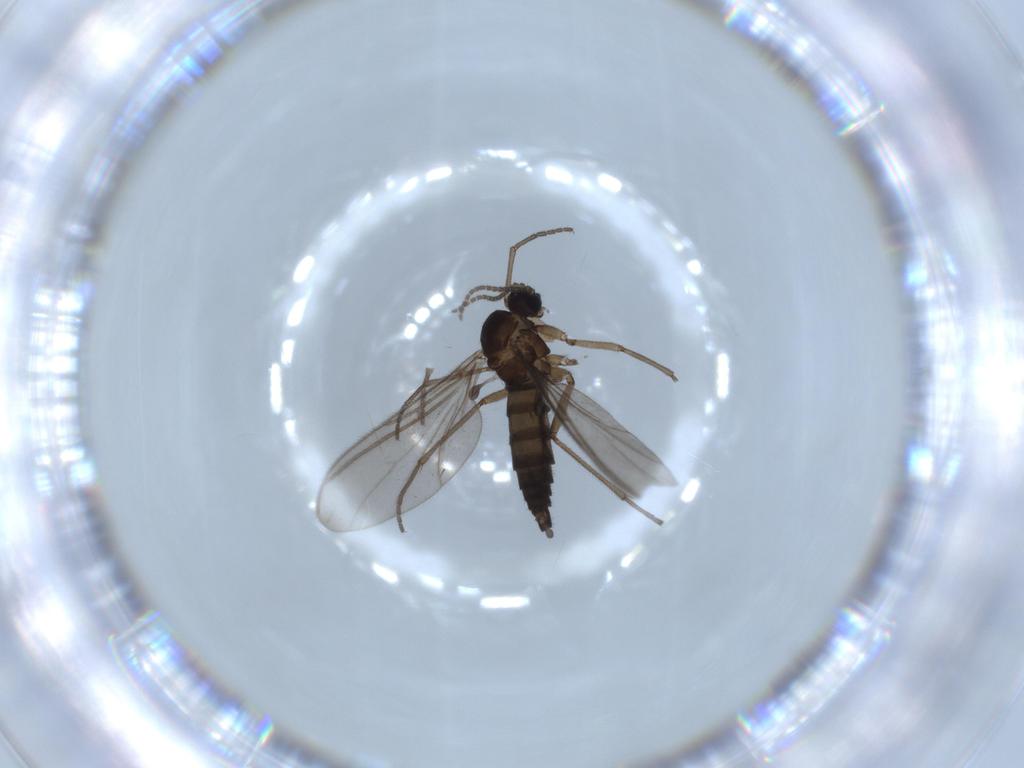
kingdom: Animalia
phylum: Arthropoda
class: Insecta
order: Diptera
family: Sciaridae
